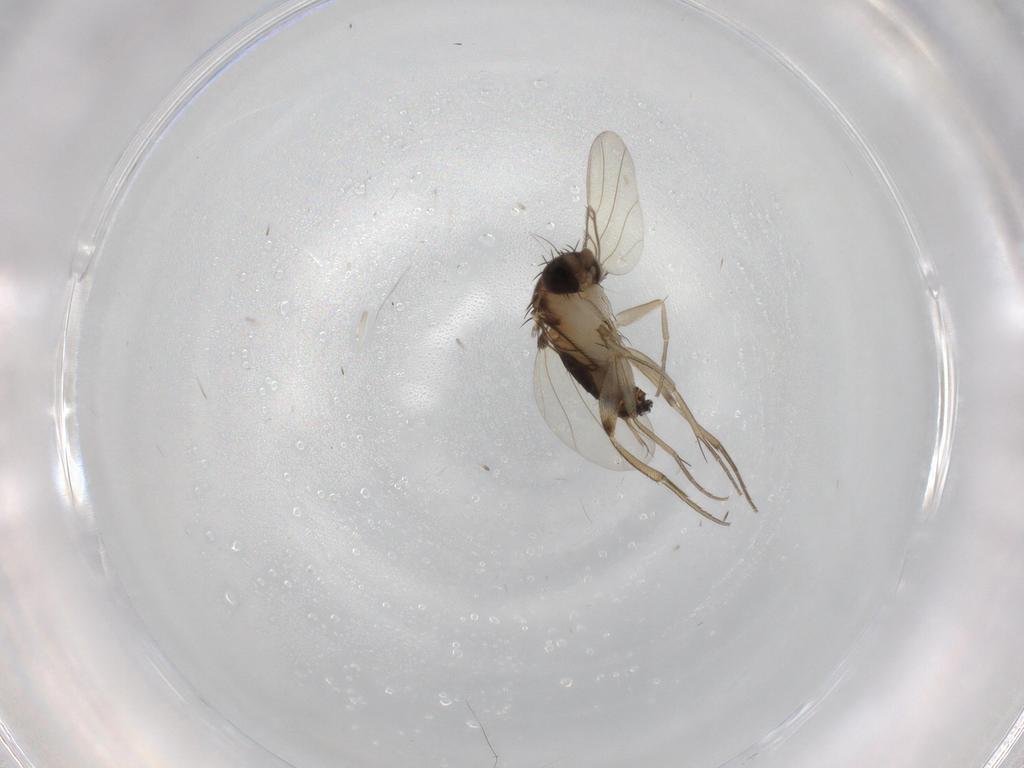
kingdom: Animalia
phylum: Arthropoda
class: Insecta
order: Diptera
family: Phoridae
